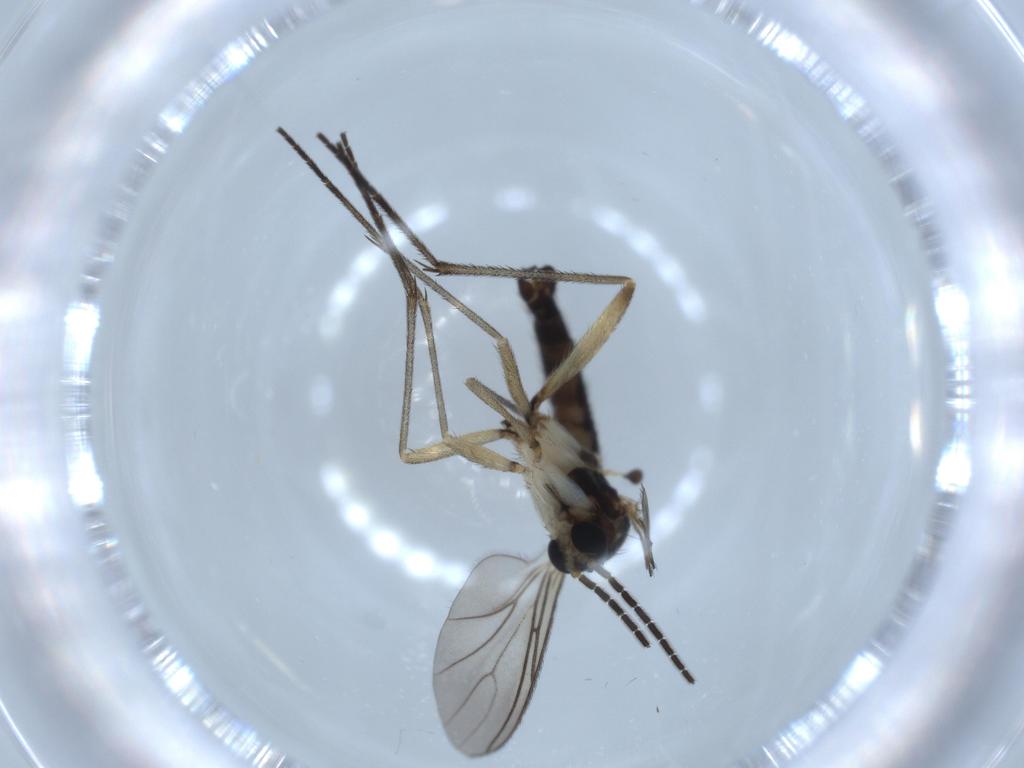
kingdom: Animalia
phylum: Arthropoda
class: Insecta
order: Diptera
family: Sciaridae
